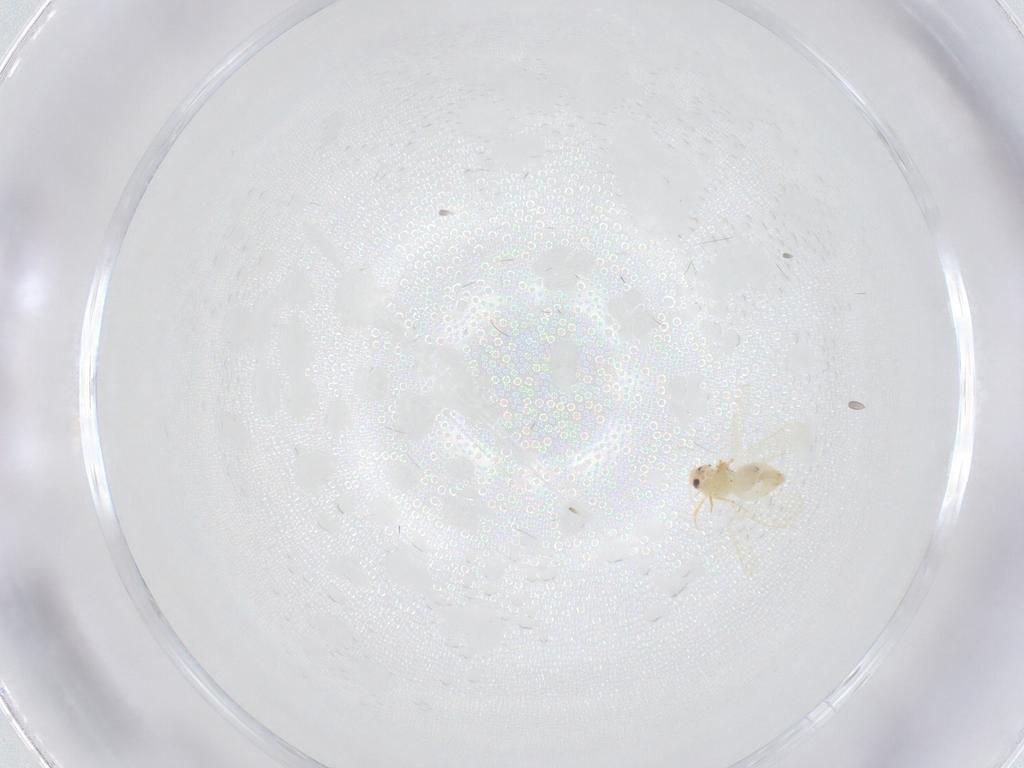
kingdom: Animalia
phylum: Arthropoda
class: Insecta
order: Hemiptera
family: Aleyrodidae
